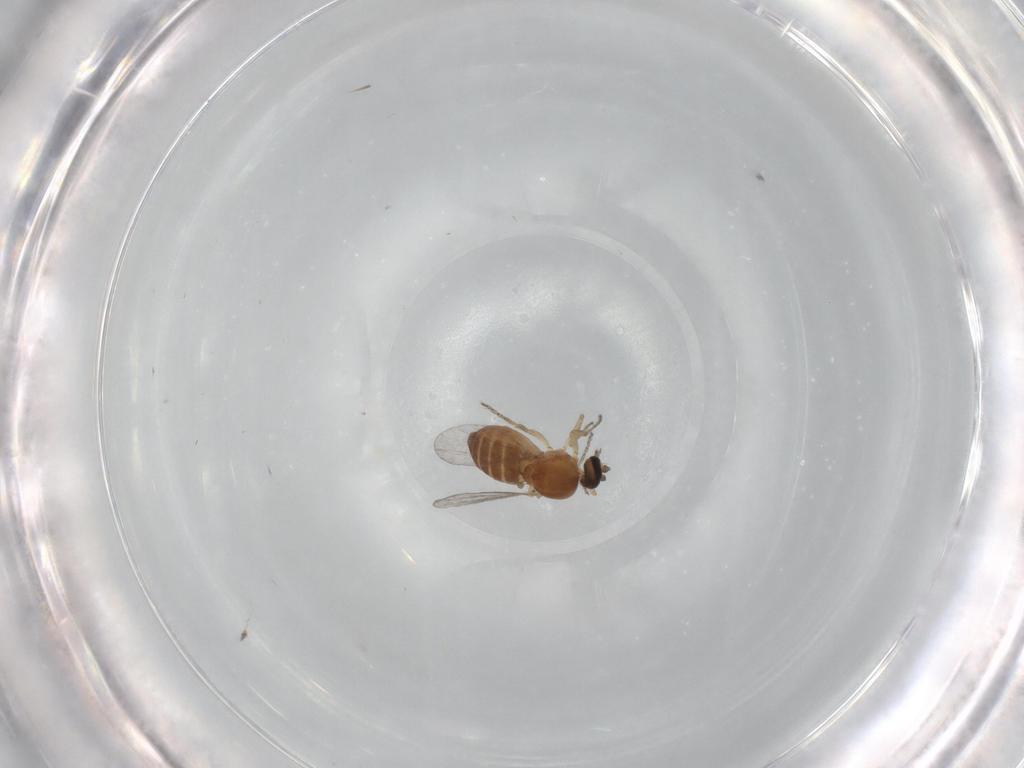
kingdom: Animalia
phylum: Arthropoda
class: Insecta
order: Diptera
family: Ceratopogonidae
